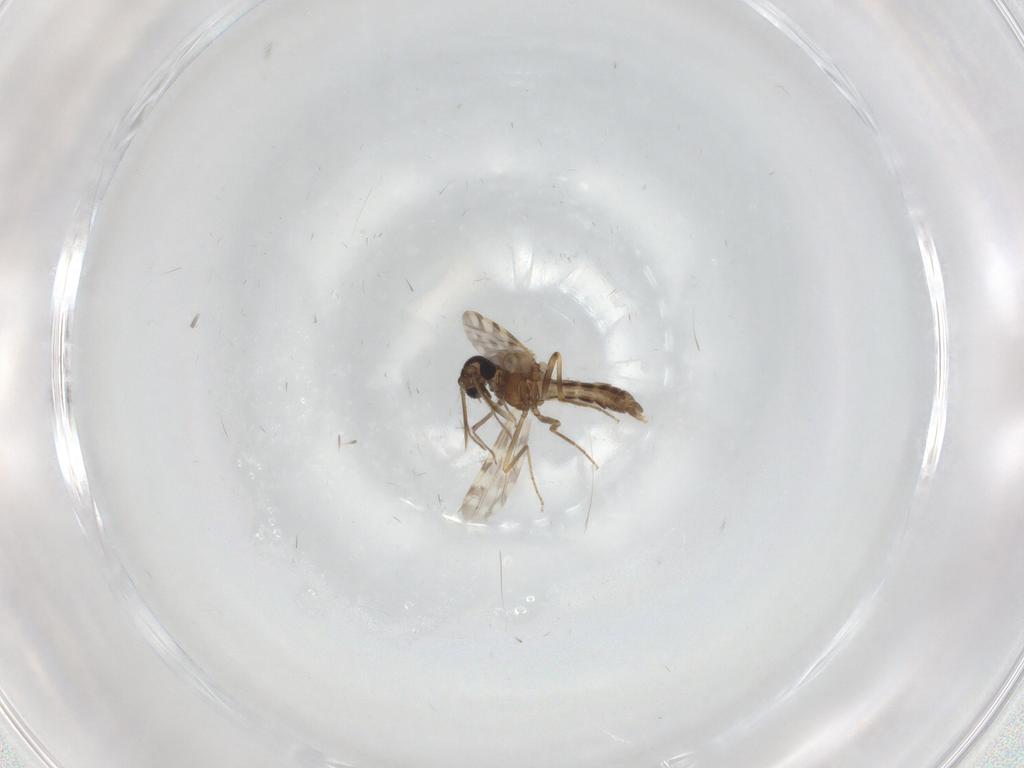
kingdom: Animalia
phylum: Arthropoda
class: Insecta
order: Diptera
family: Ceratopogonidae
